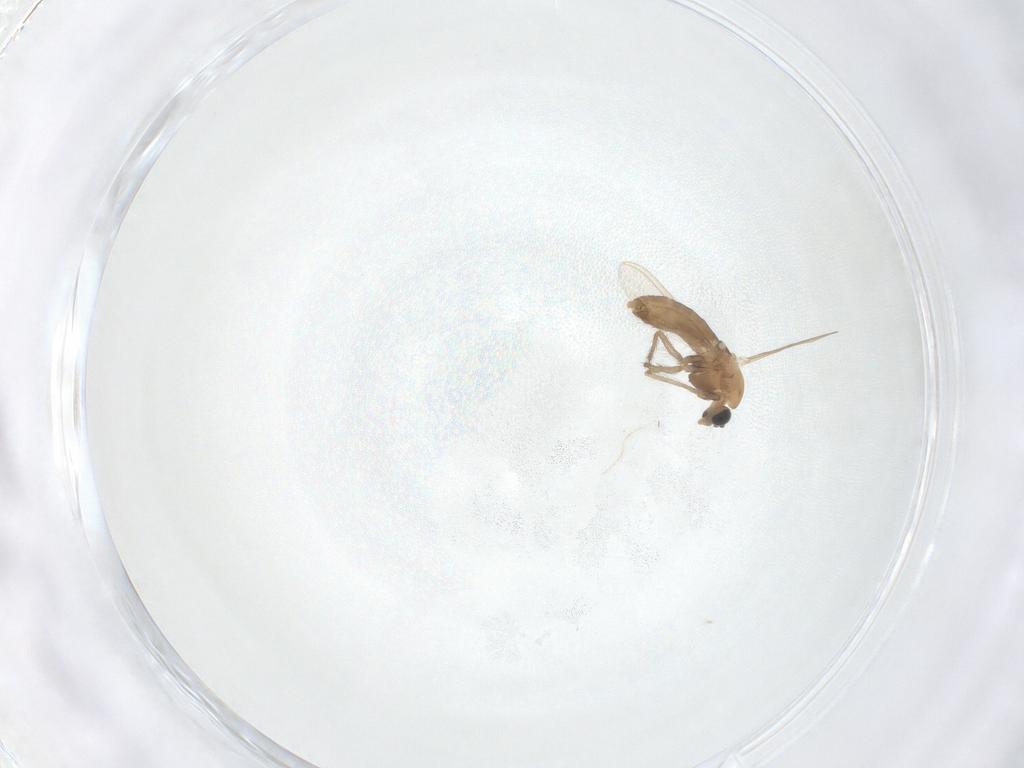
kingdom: Animalia
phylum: Arthropoda
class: Insecta
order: Diptera
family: Chironomidae
